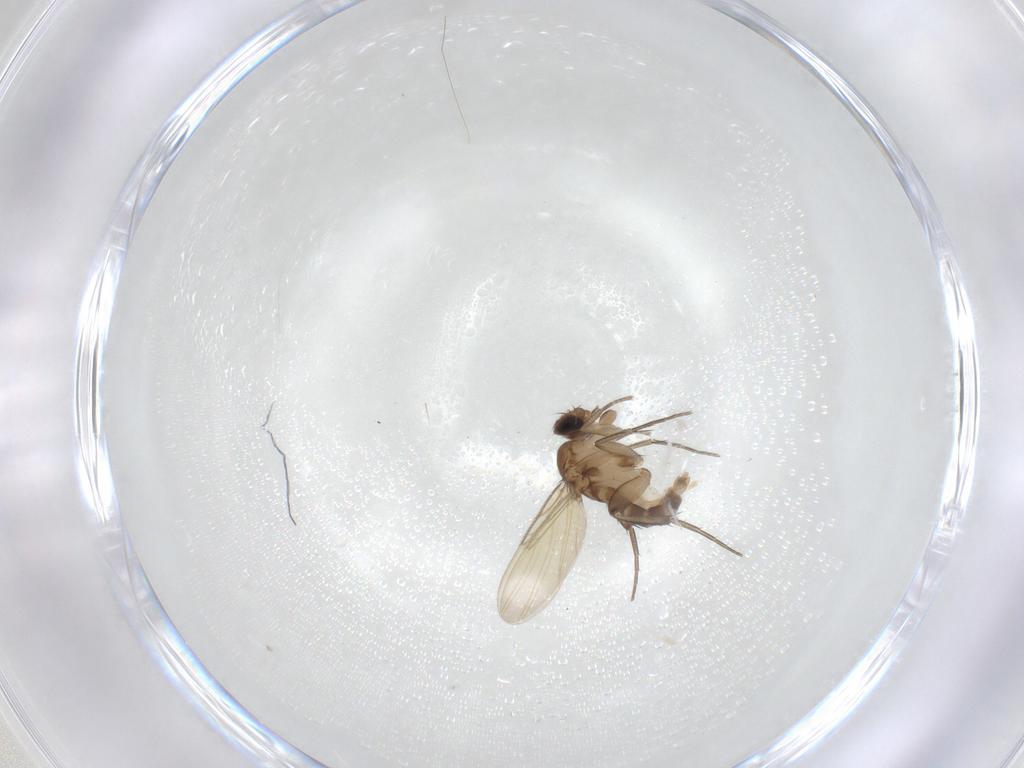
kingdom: Animalia
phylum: Arthropoda
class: Insecta
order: Diptera
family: Ceratopogonidae
